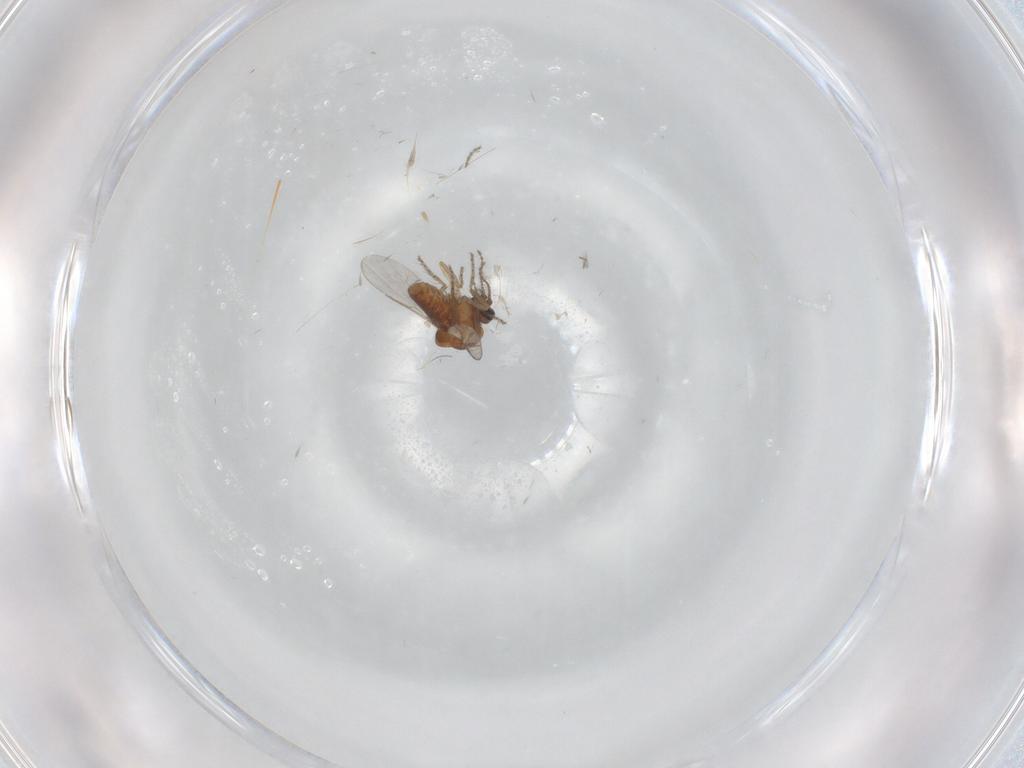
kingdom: Animalia
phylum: Arthropoda
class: Insecta
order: Diptera
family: Ceratopogonidae
